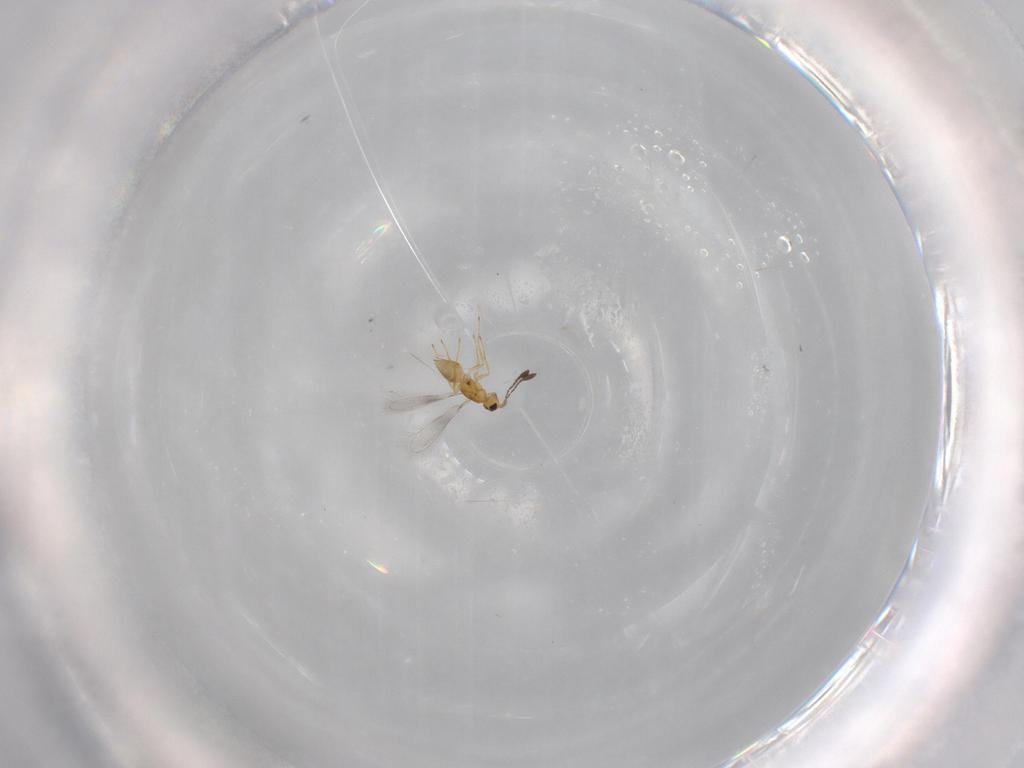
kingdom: Animalia
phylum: Arthropoda
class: Insecta
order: Hymenoptera
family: Mymaridae
